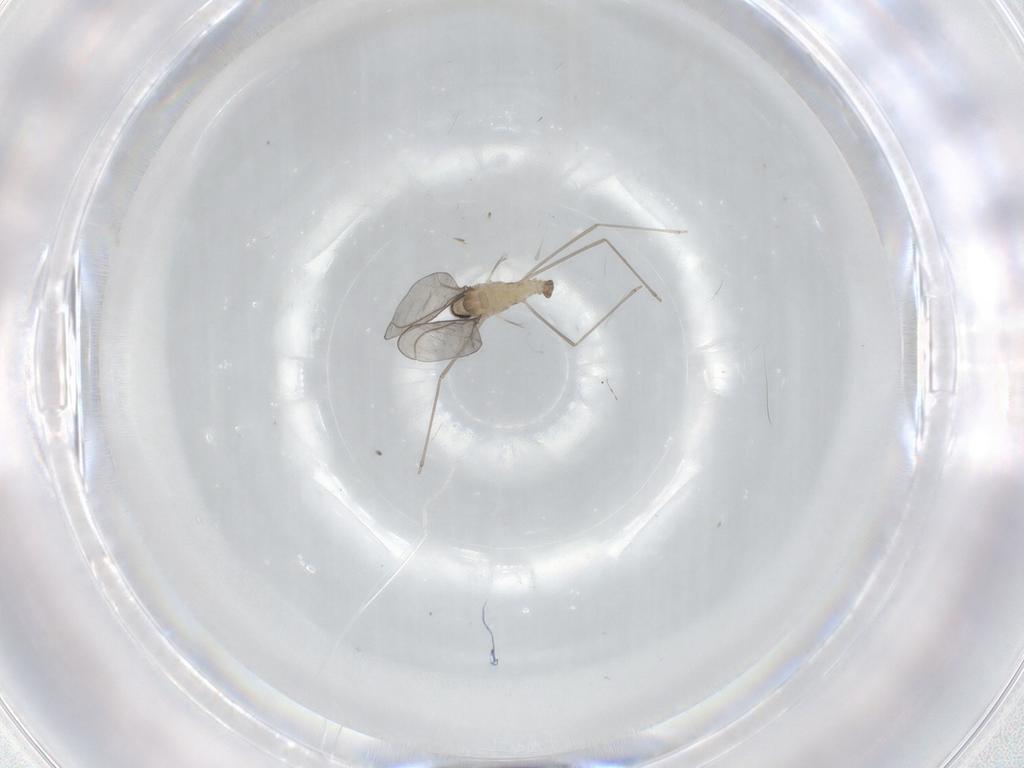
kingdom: Animalia
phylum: Arthropoda
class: Insecta
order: Diptera
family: Cecidomyiidae
